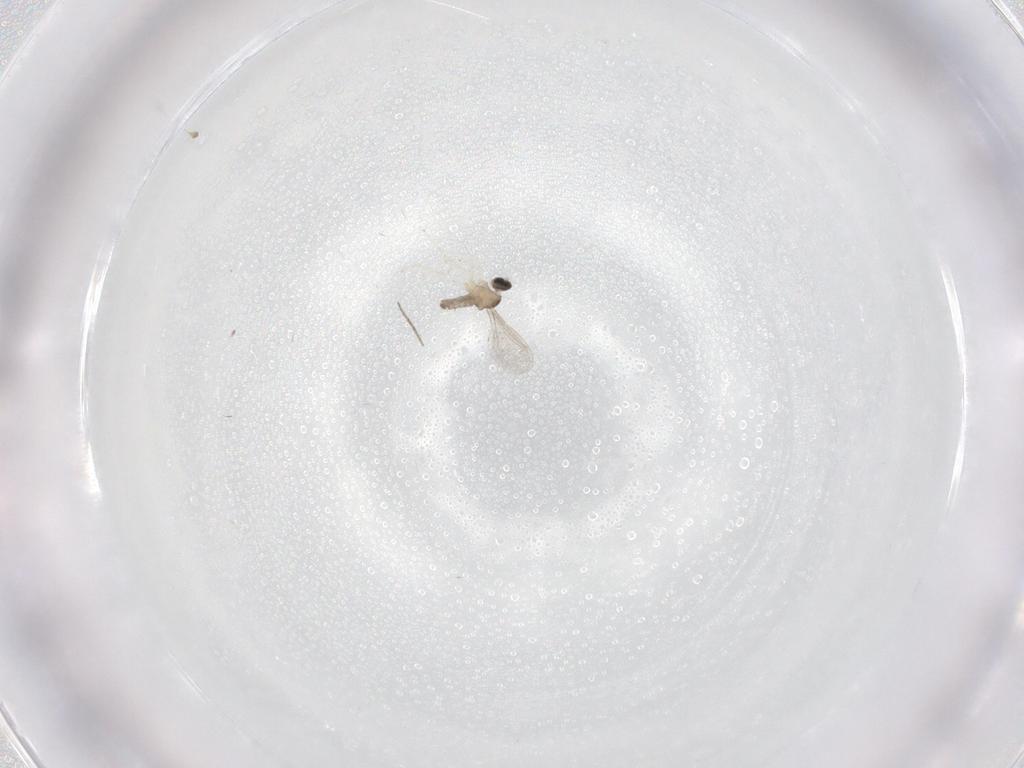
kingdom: Animalia
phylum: Arthropoda
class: Insecta
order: Diptera
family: Cecidomyiidae
